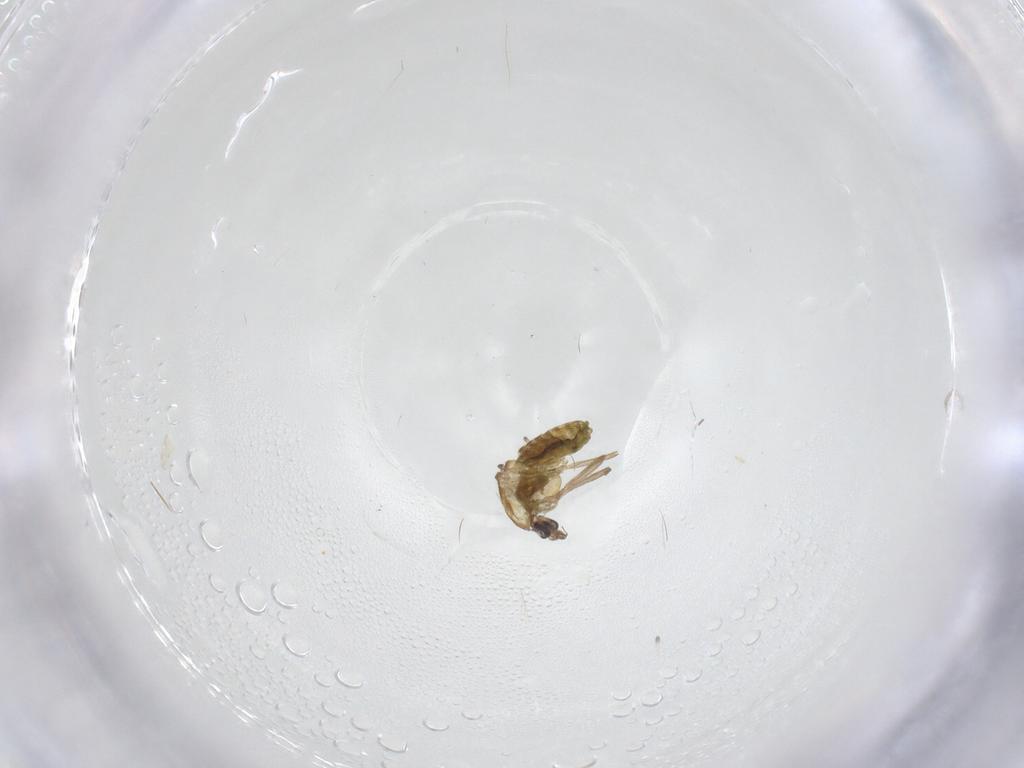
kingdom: Animalia
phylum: Arthropoda
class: Insecta
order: Diptera
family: Chironomidae
